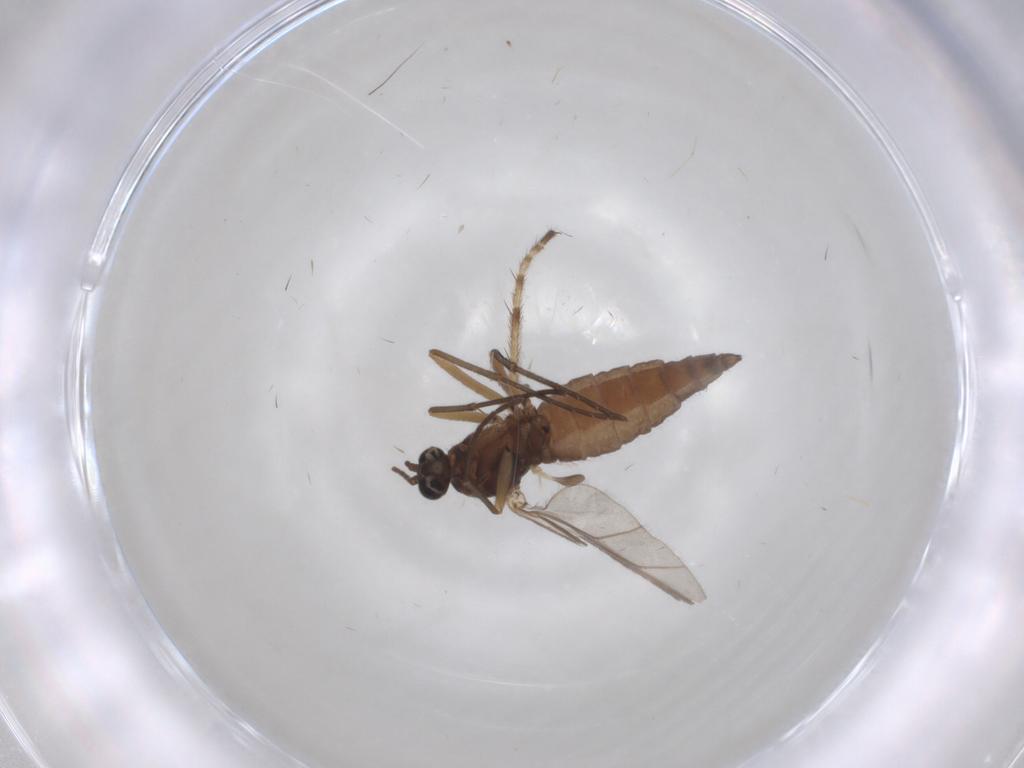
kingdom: Animalia
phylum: Arthropoda
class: Insecta
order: Diptera
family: Sciaridae
